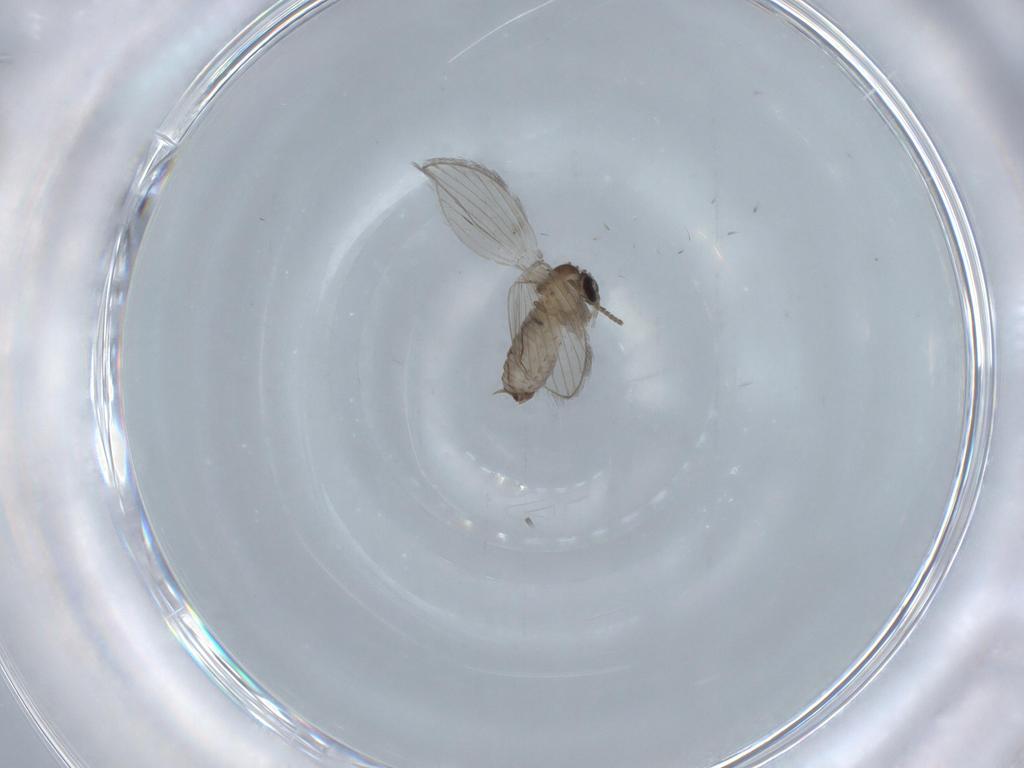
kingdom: Animalia
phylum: Arthropoda
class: Insecta
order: Diptera
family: Psychodidae
